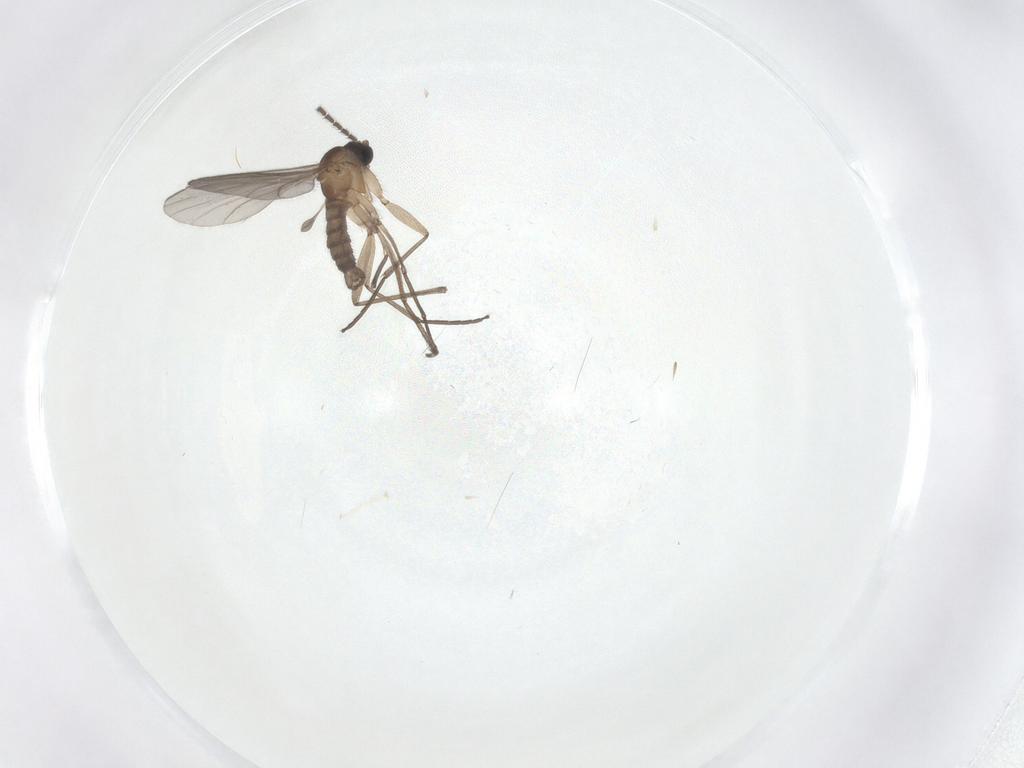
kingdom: Animalia
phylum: Arthropoda
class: Insecta
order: Diptera
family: Sciaridae
